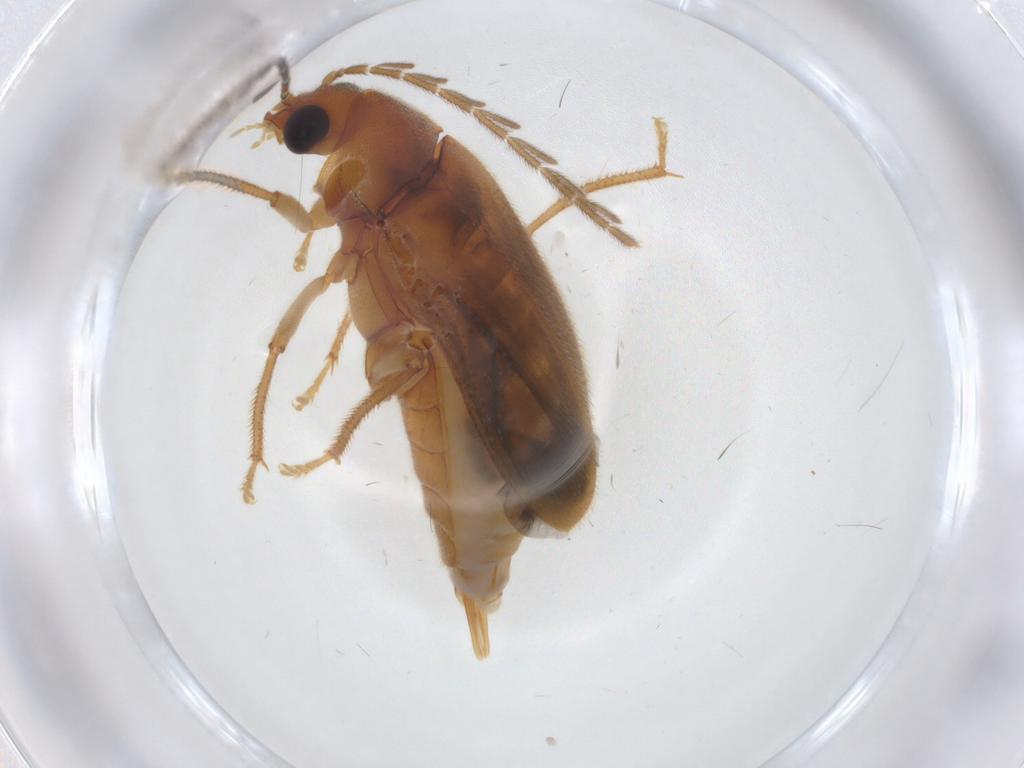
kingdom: Animalia
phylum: Arthropoda
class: Insecta
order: Coleoptera
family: Ptilodactylidae
